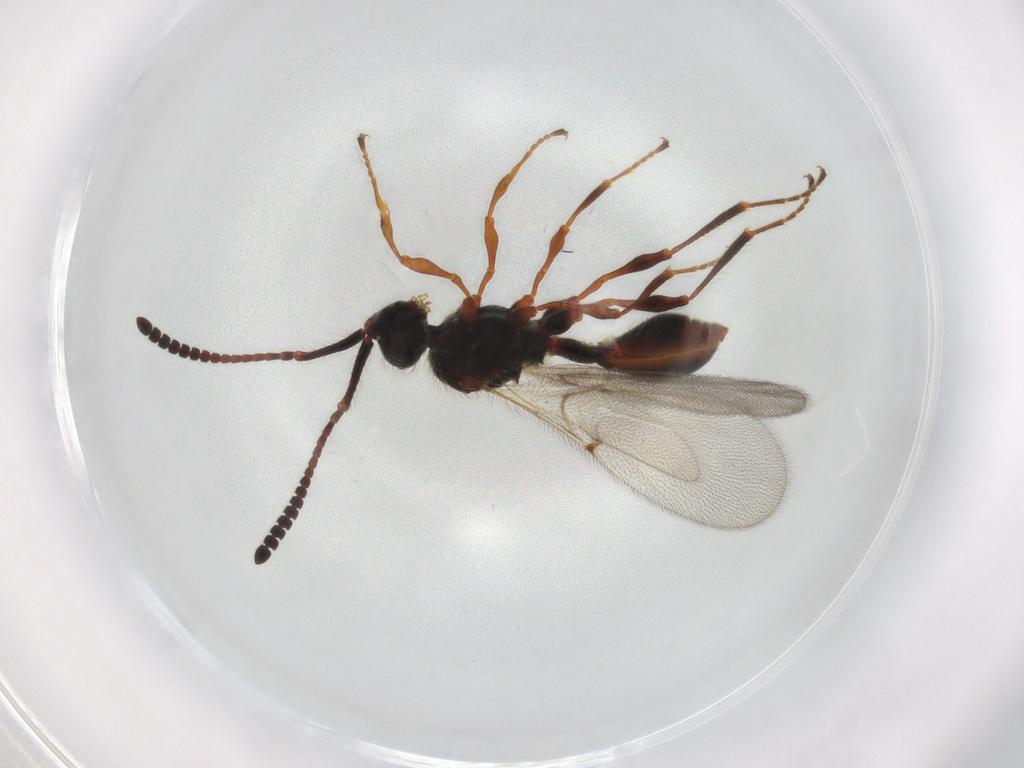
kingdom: Animalia
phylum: Arthropoda
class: Insecta
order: Hymenoptera
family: Diapriidae
